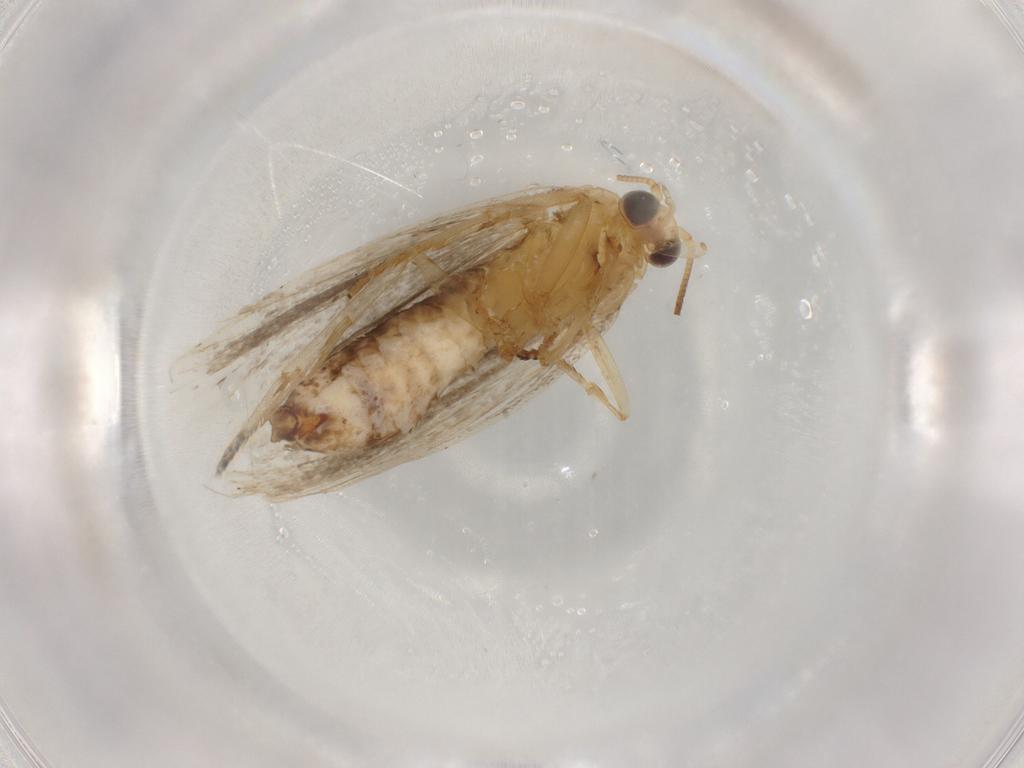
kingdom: Animalia
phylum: Arthropoda
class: Insecta
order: Lepidoptera
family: Tortricidae
